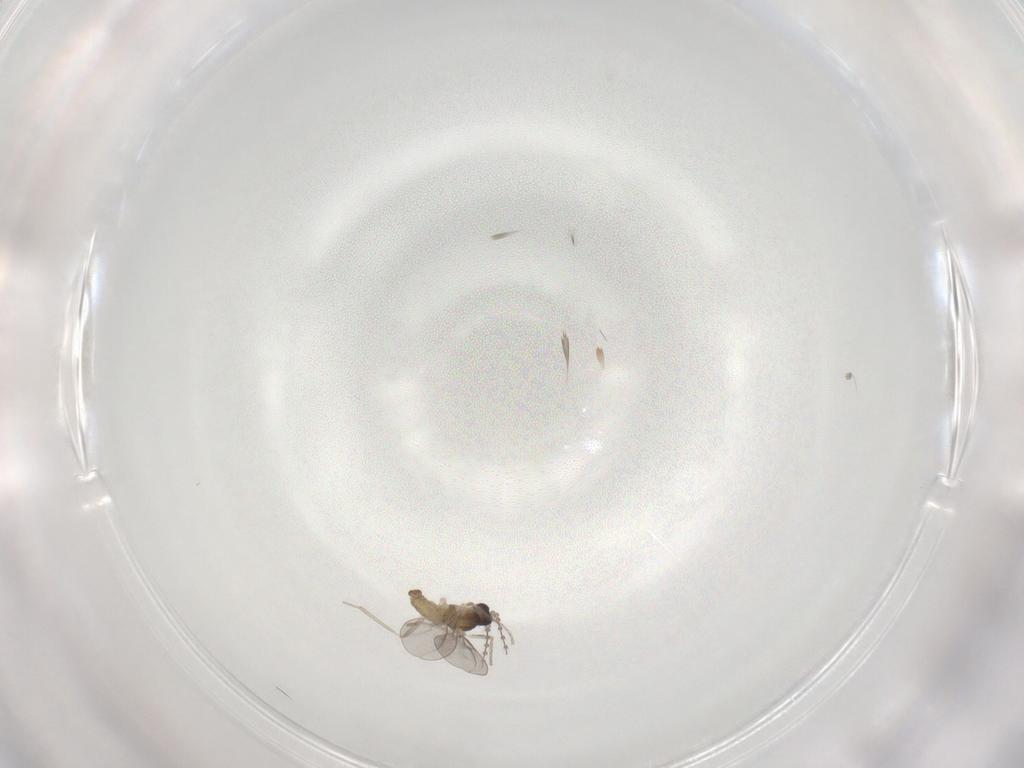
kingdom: Animalia
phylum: Arthropoda
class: Insecta
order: Diptera
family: Cecidomyiidae
